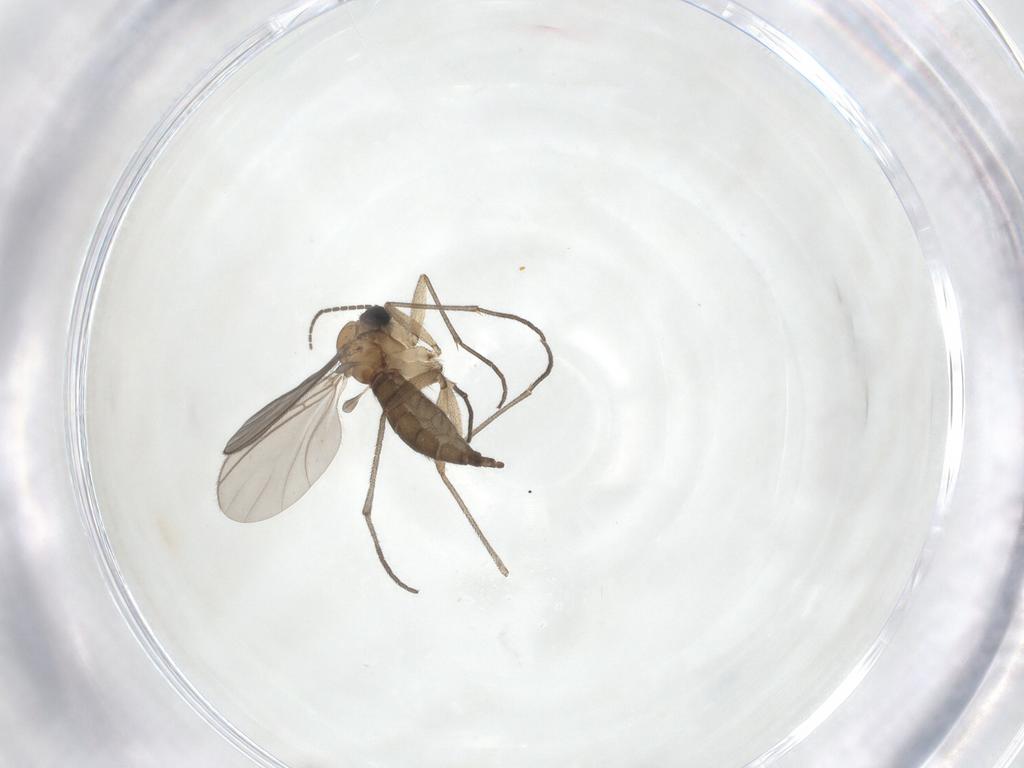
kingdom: Animalia
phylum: Arthropoda
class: Insecta
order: Diptera
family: Sciaridae
